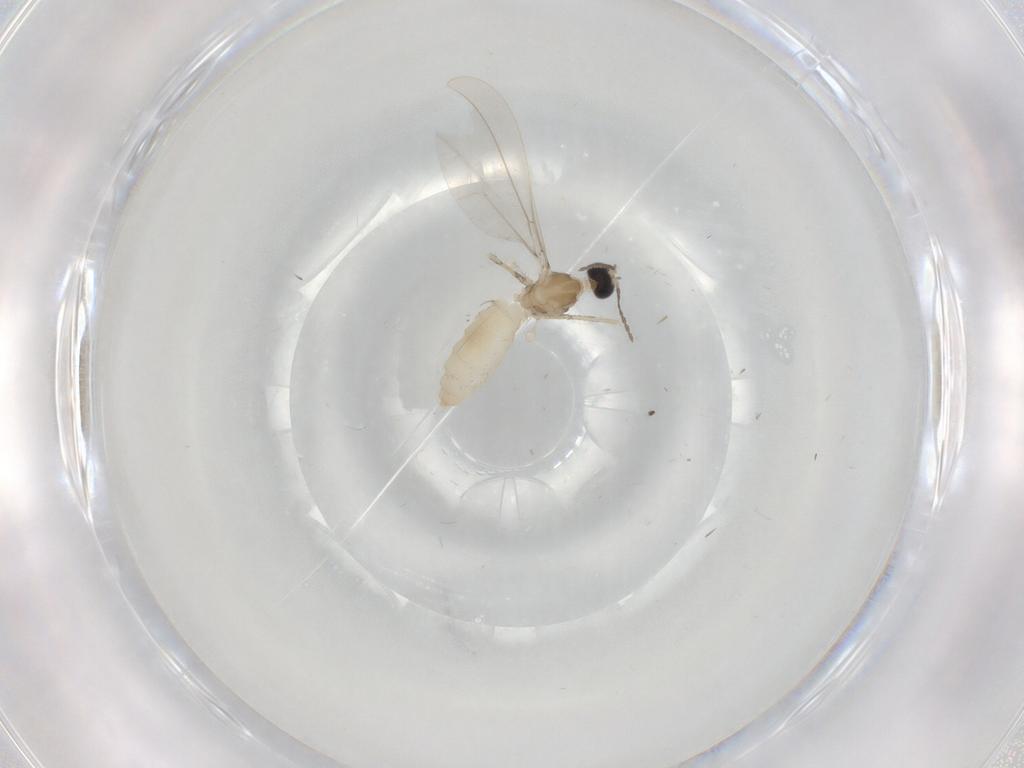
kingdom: Animalia
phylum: Arthropoda
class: Insecta
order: Diptera
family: Cecidomyiidae
